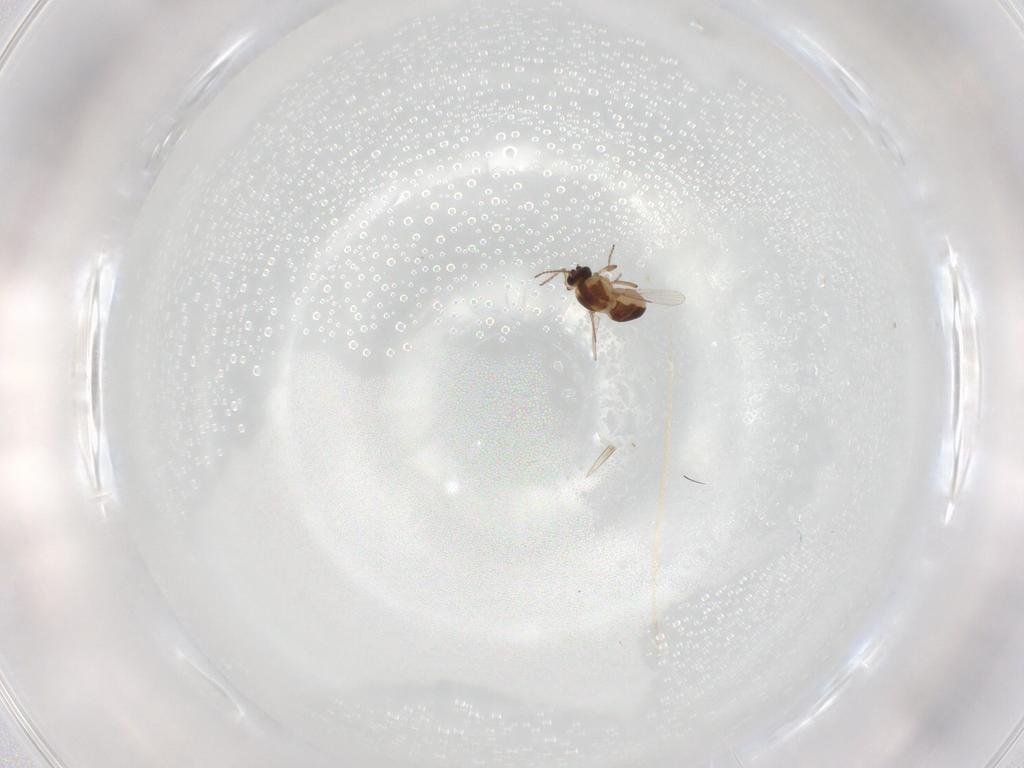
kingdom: Animalia
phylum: Arthropoda
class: Insecta
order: Diptera
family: Ceratopogonidae
